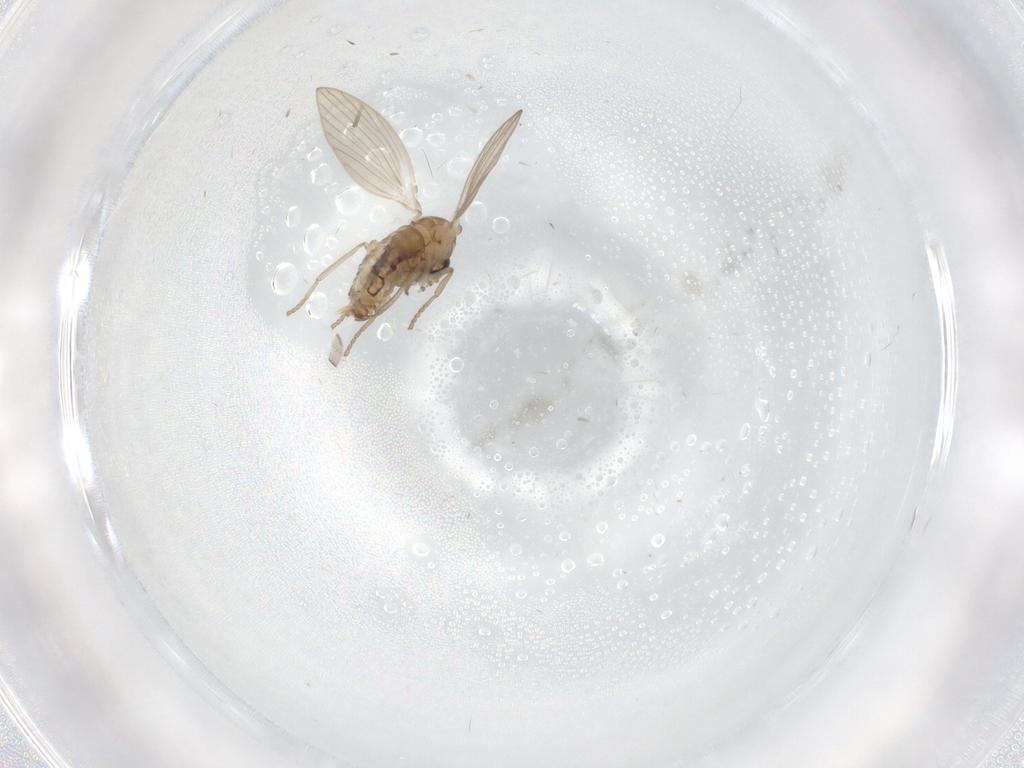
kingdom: Animalia
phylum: Arthropoda
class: Insecta
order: Diptera
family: Psychodidae
